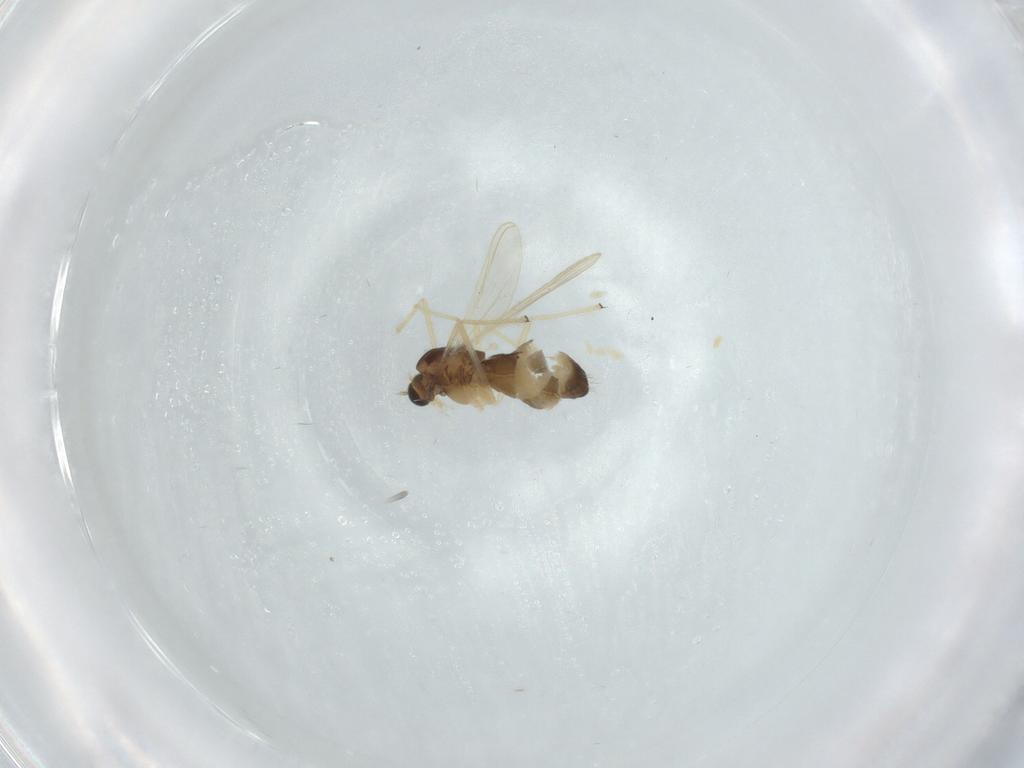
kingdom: Animalia
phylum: Arthropoda
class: Insecta
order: Diptera
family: Chironomidae
